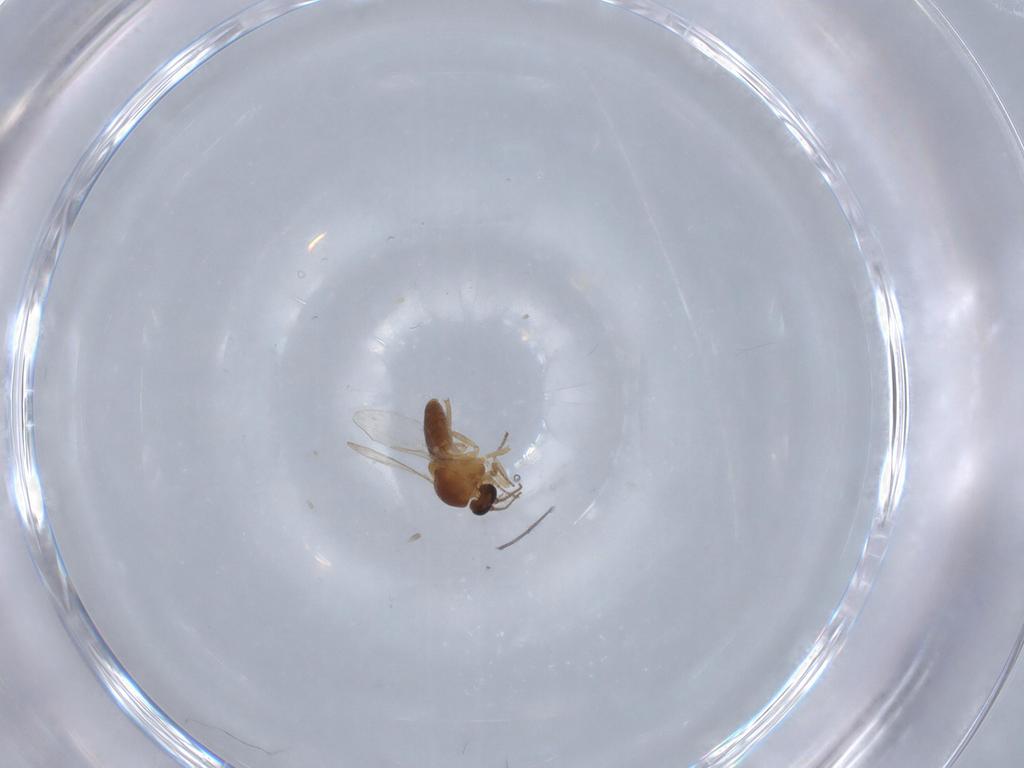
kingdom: Animalia
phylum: Arthropoda
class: Insecta
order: Diptera
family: Ceratopogonidae
